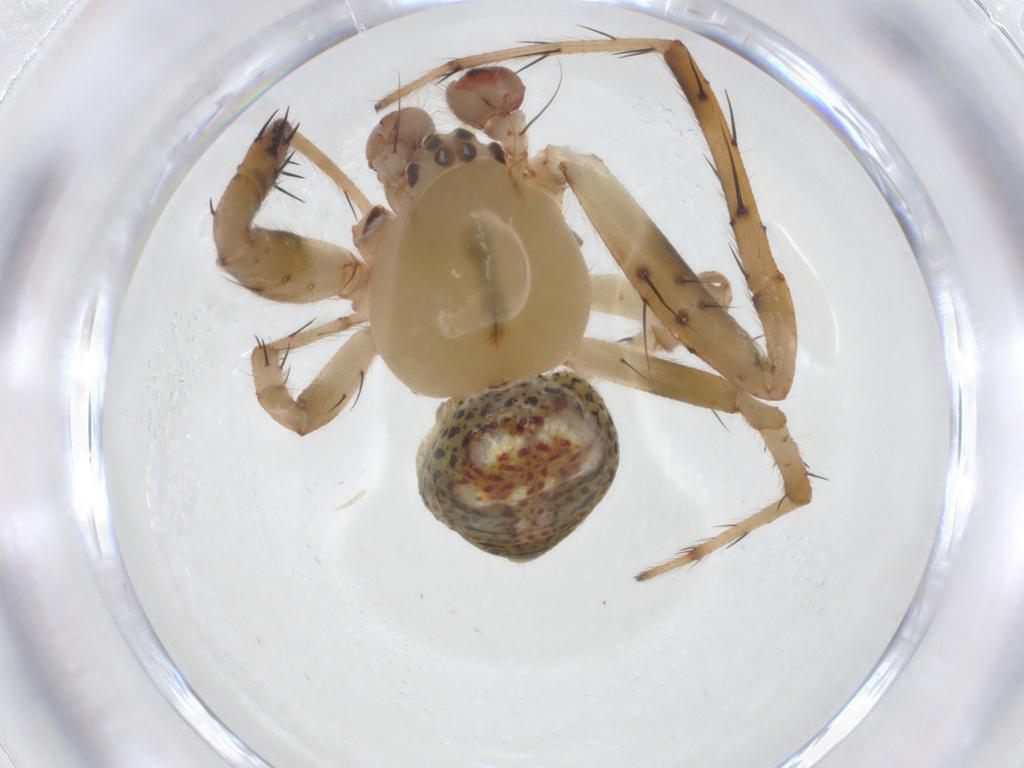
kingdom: Animalia
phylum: Arthropoda
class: Arachnida
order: Araneae
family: Araneidae
